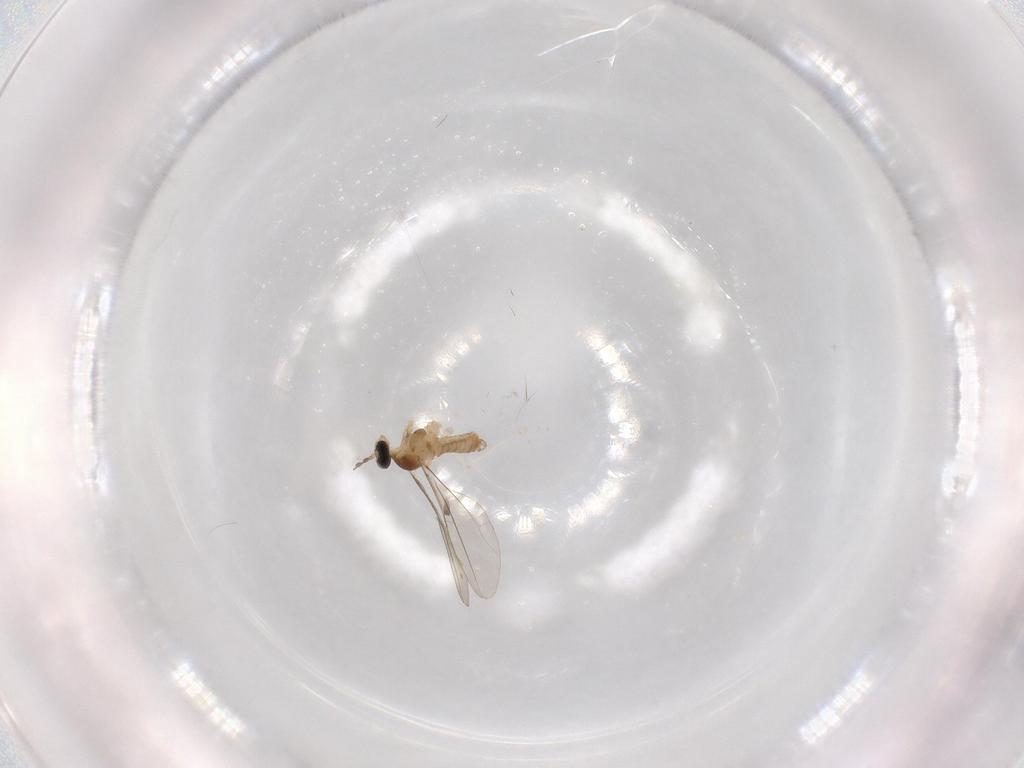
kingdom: Animalia
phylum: Arthropoda
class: Insecta
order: Diptera
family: Cecidomyiidae
